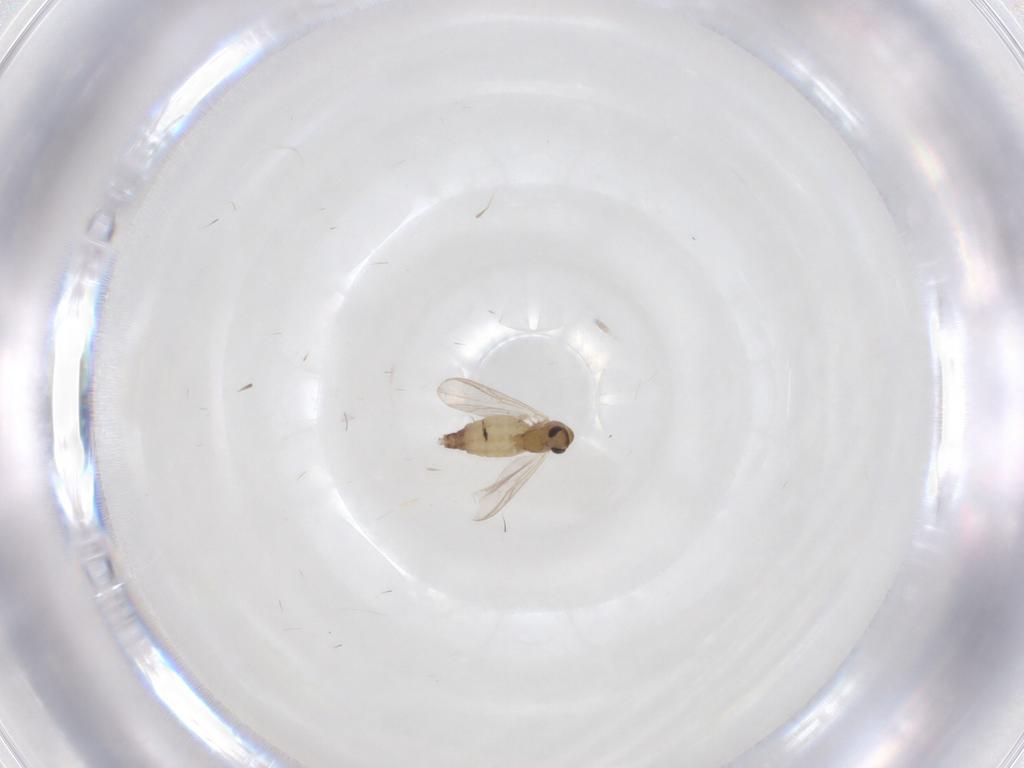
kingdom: Animalia
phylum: Arthropoda
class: Insecta
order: Diptera
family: Chironomidae
